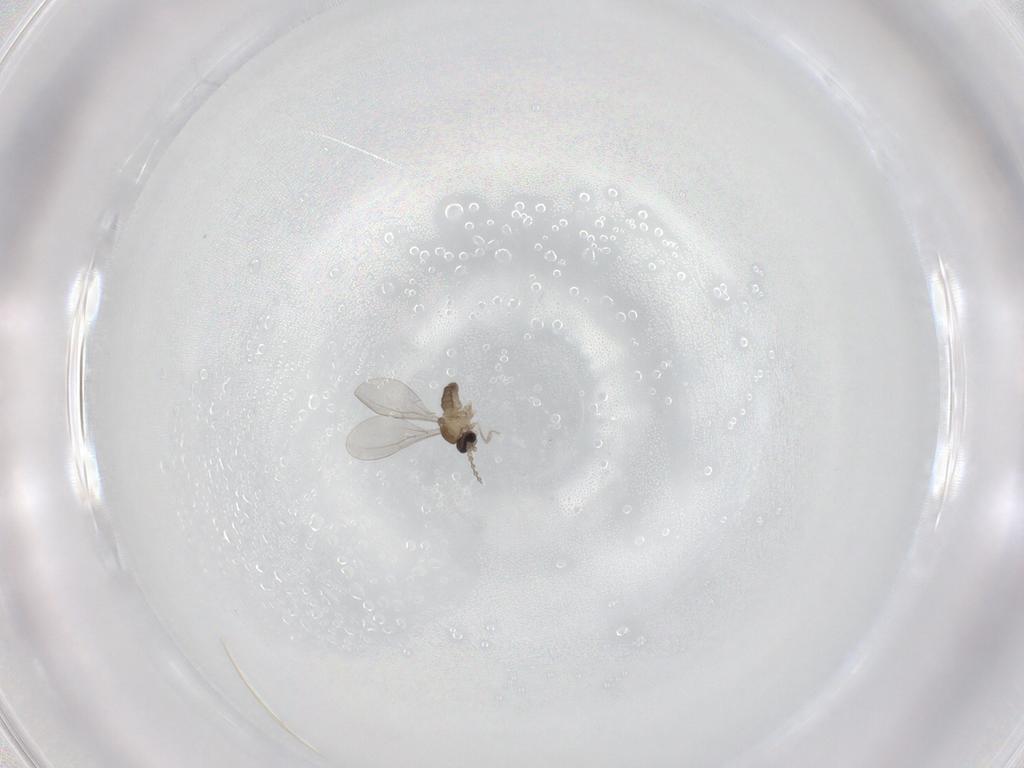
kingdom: Animalia
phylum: Arthropoda
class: Insecta
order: Diptera
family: Cecidomyiidae
